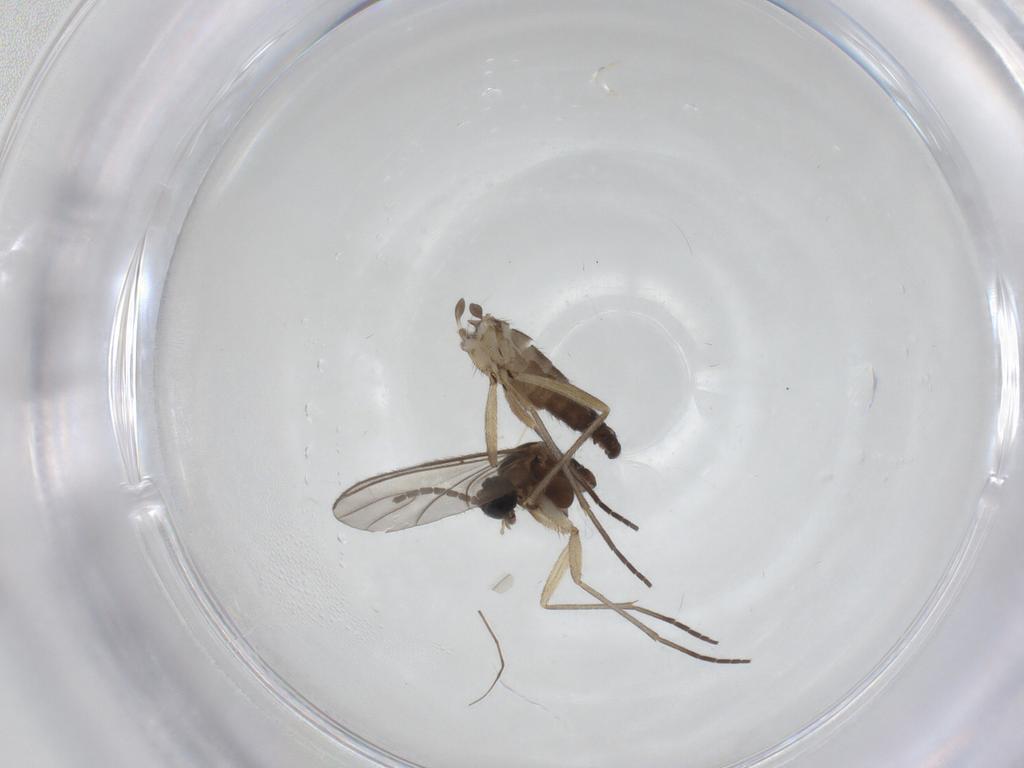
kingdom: Animalia
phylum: Arthropoda
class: Insecta
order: Diptera
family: Sciaridae
